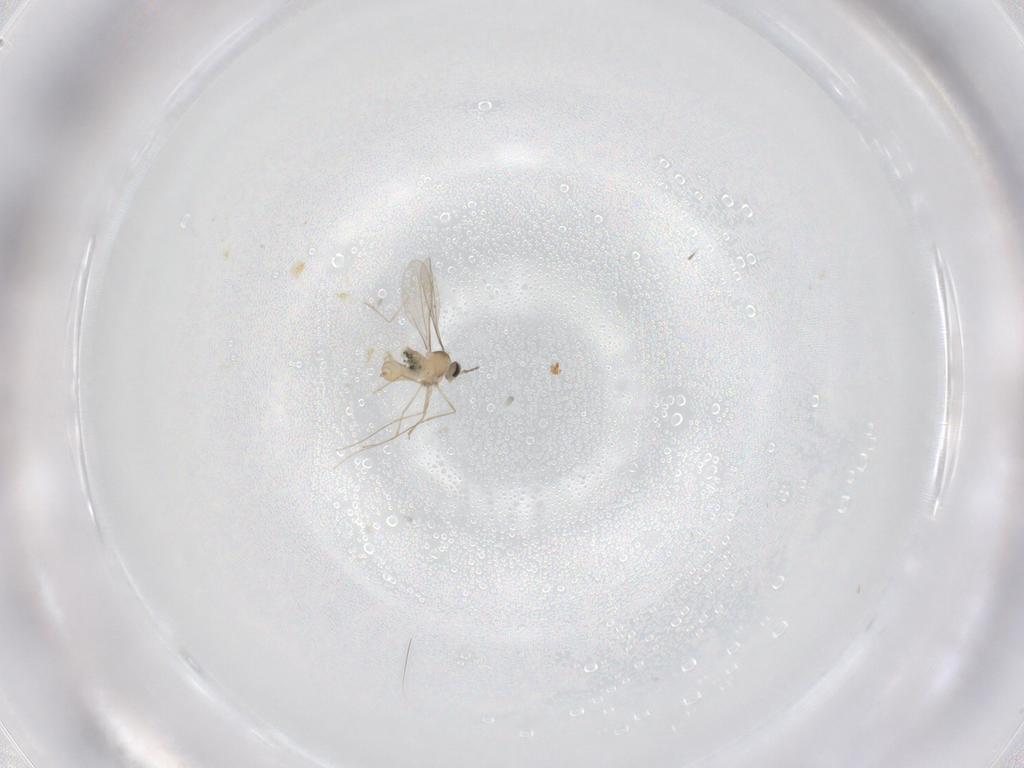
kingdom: Animalia
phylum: Arthropoda
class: Insecta
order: Diptera
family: Cecidomyiidae
